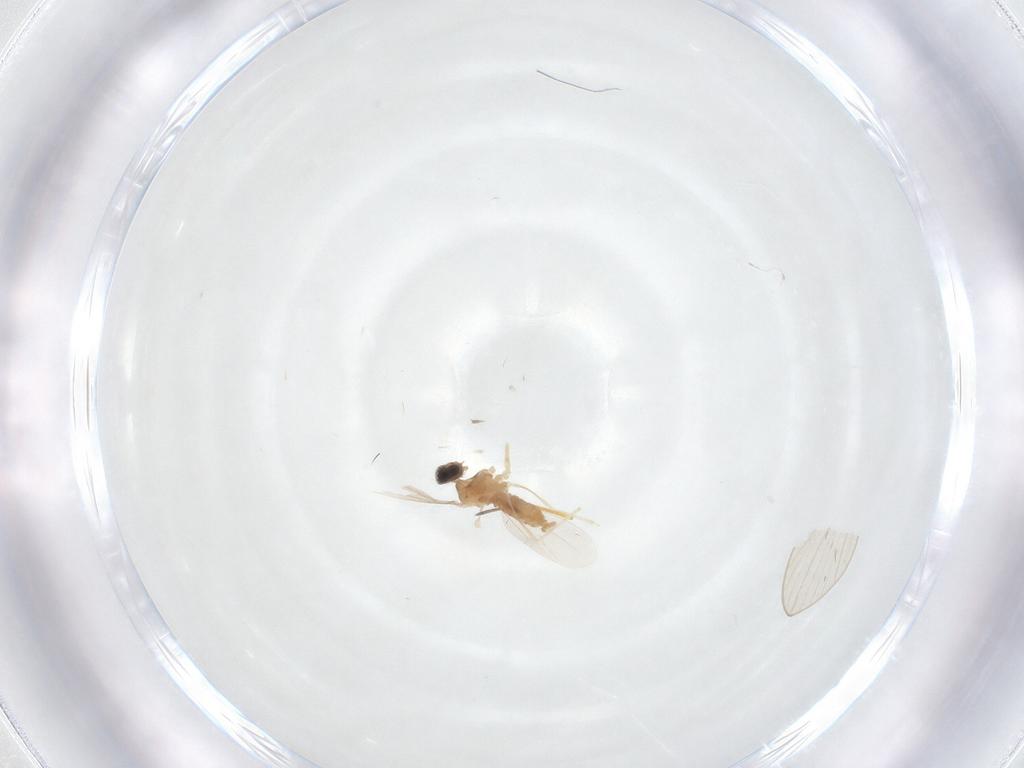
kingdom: Animalia
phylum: Arthropoda
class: Insecta
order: Diptera
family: Cecidomyiidae
